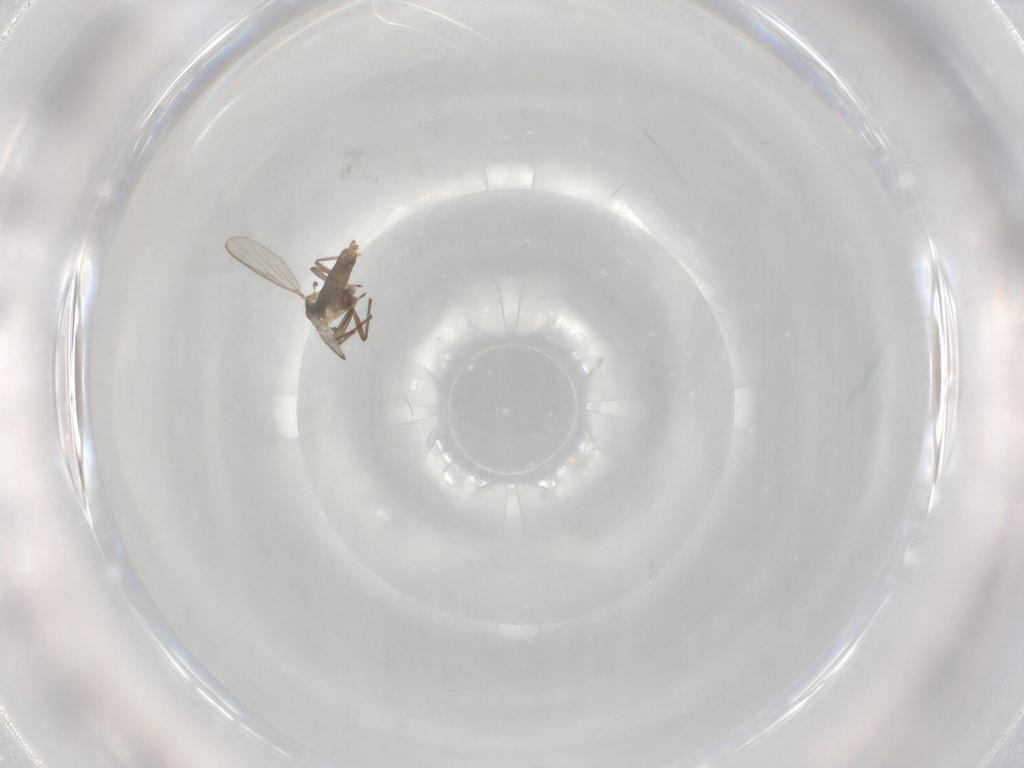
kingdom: Animalia
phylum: Arthropoda
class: Insecta
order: Diptera
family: Chironomidae
